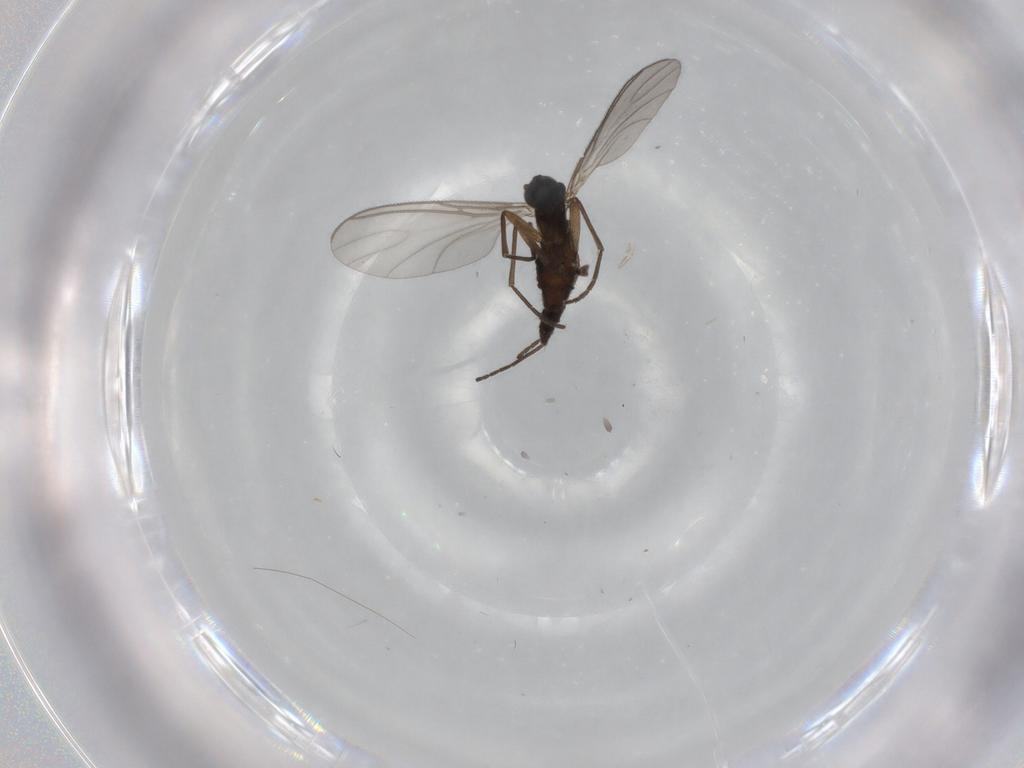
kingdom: Animalia
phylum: Arthropoda
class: Insecta
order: Diptera
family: Sciaridae
